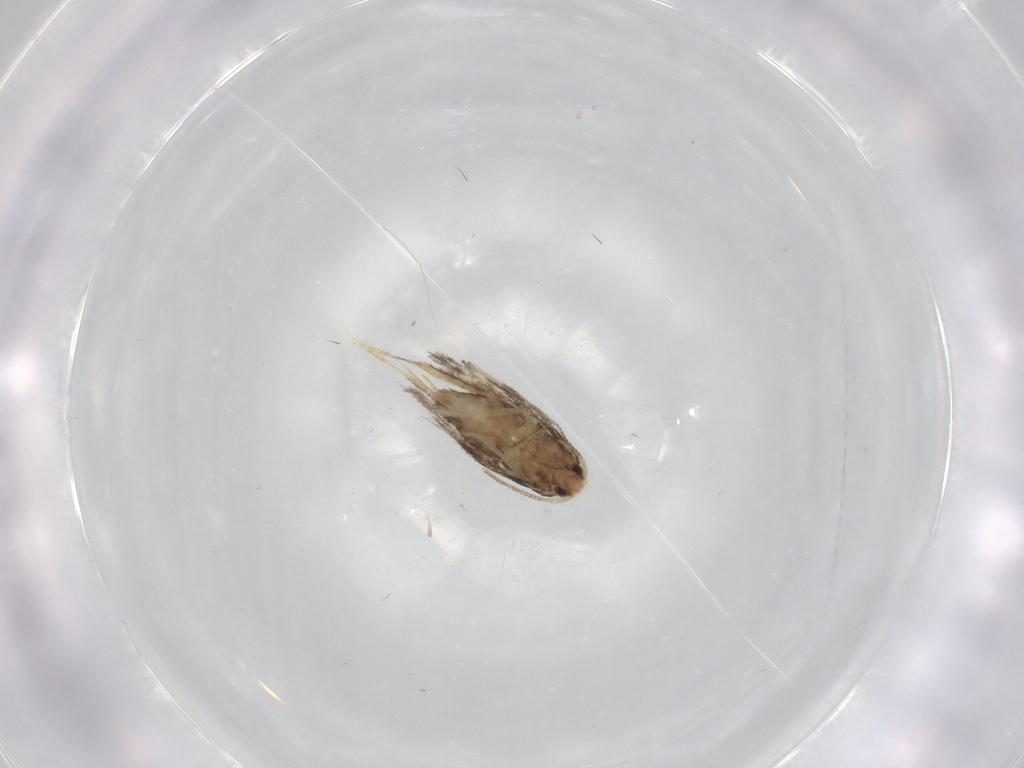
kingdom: Animalia
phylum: Arthropoda
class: Insecta
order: Lepidoptera
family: Nepticulidae
